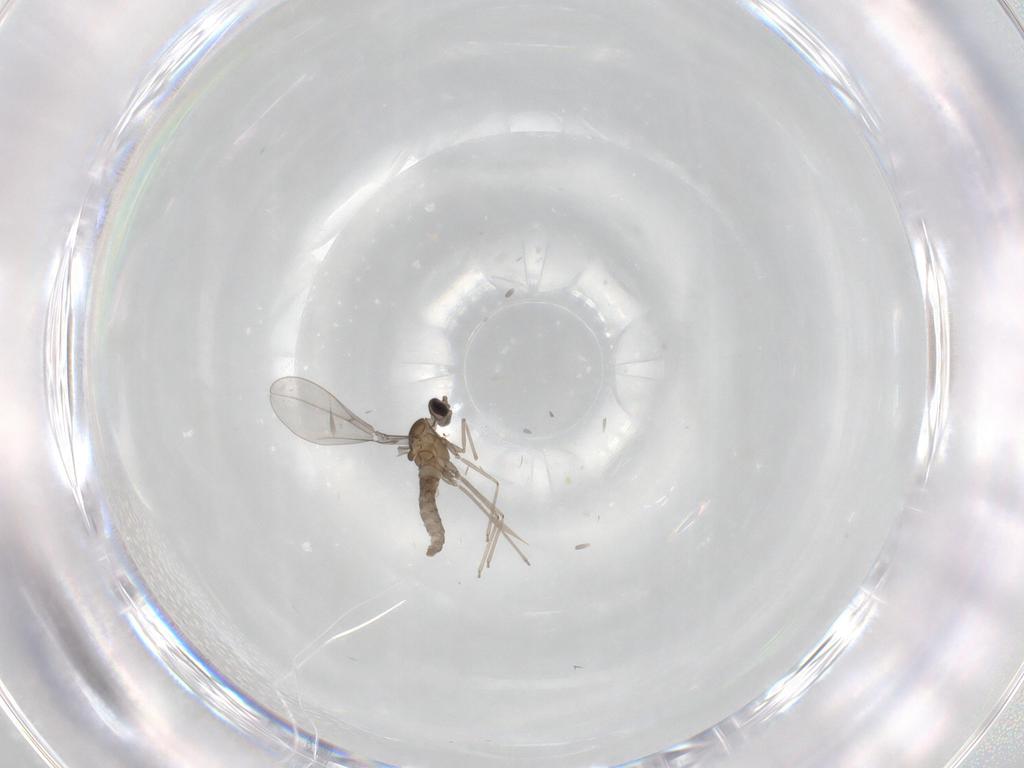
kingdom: Animalia
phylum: Arthropoda
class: Insecta
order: Diptera
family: Cecidomyiidae
